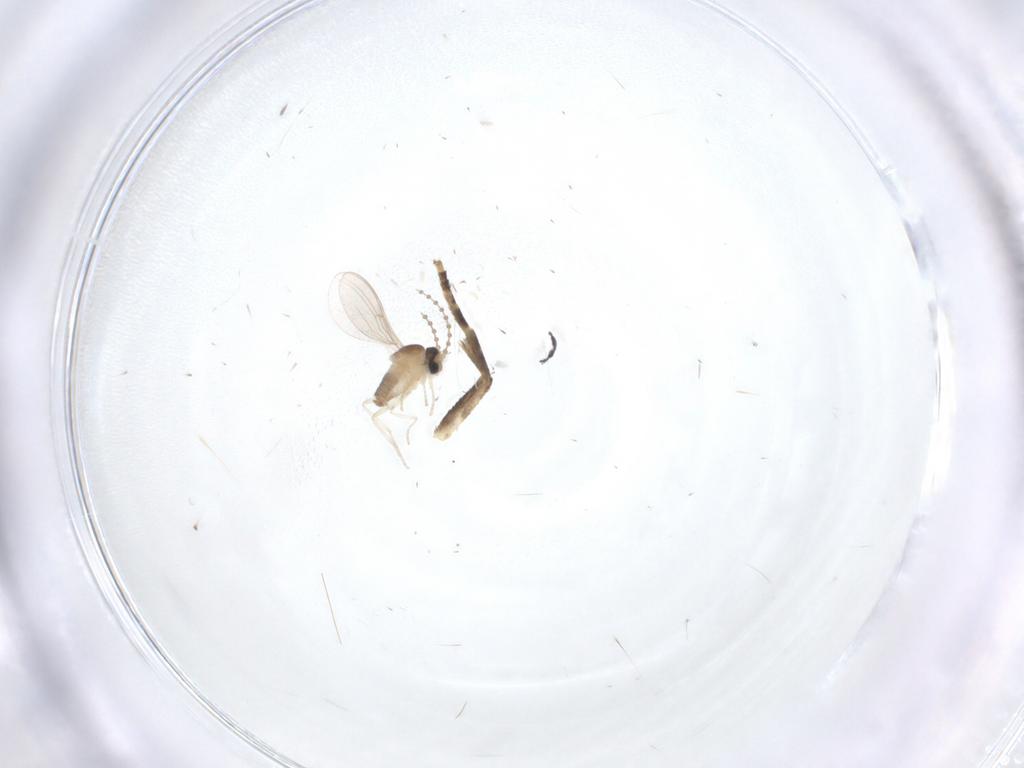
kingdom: Animalia
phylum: Arthropoda
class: Insecta
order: Diptera
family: Cecidomyiidae
